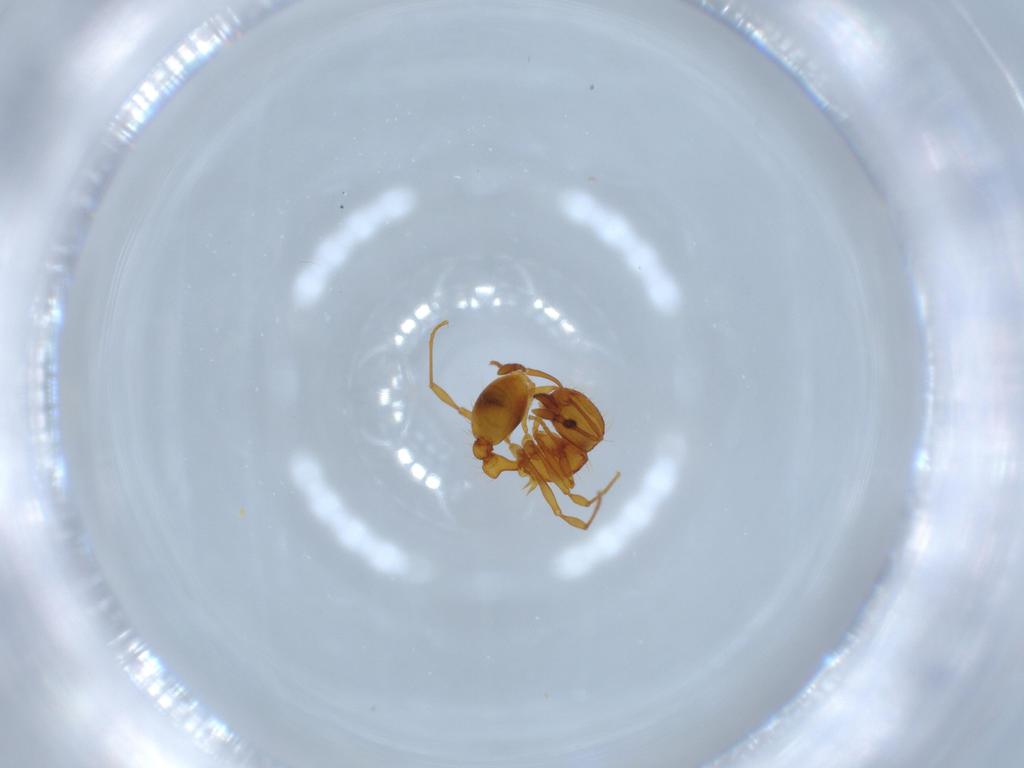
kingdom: Animalia
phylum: Arthropoda
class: Insecta
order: Hymenoptera
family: Formicidae
